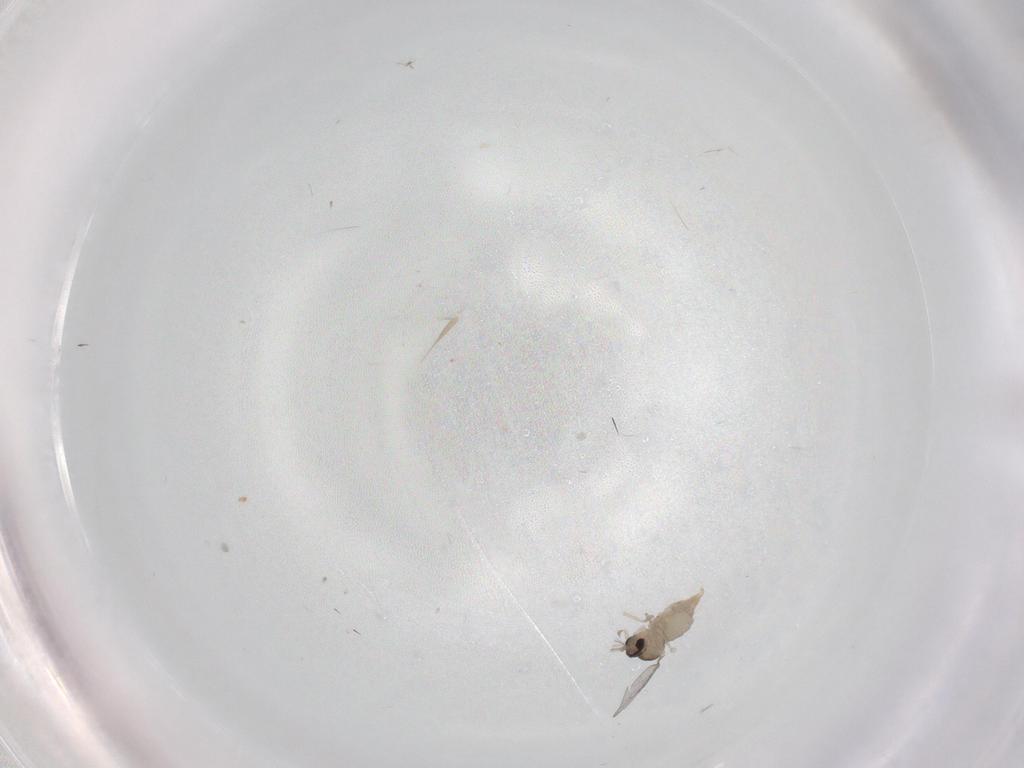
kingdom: Animalia
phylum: Arthropoda
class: Insecta
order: Diptera
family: Cecidomyiidae
